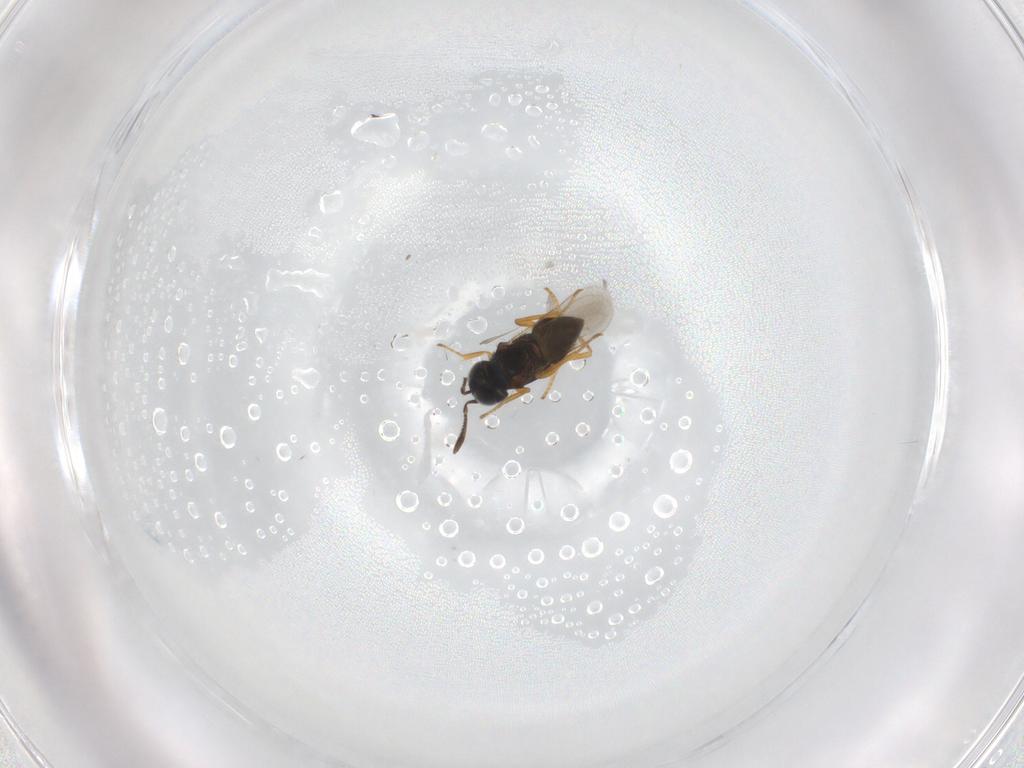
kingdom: Animalia
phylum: Arthropoda
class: Insecta
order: Hymenoptera
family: Encyrtidae
